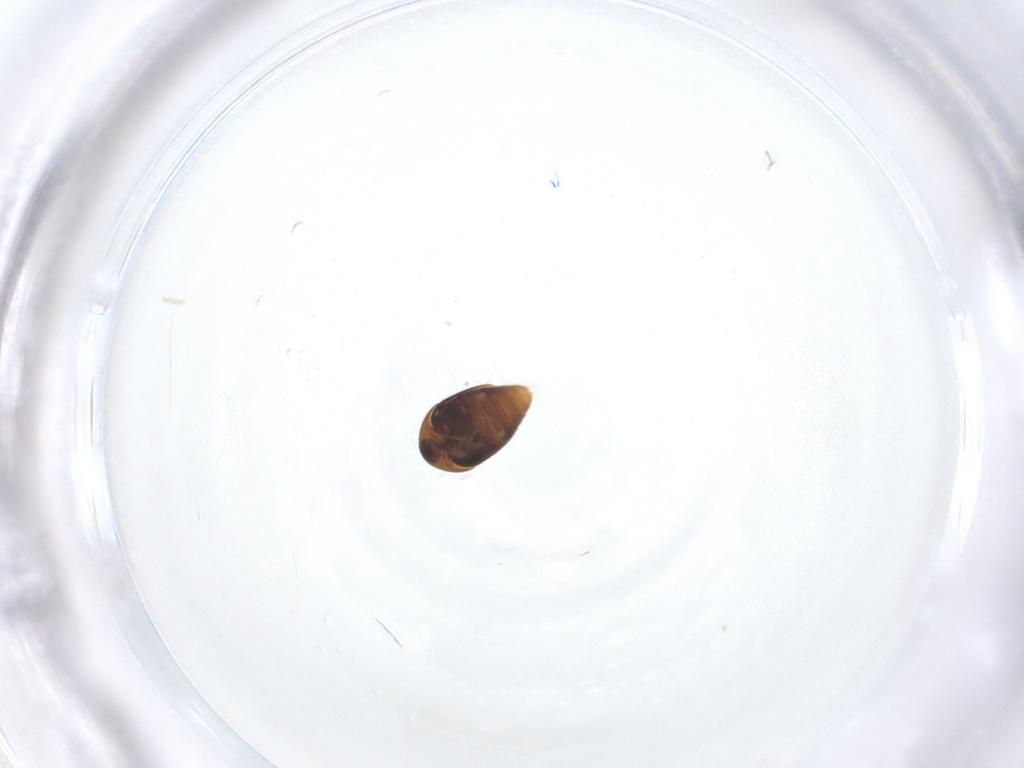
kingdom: Animalia
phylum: Arthropoda
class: Insecta
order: Coleoptera
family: Corylophidae
